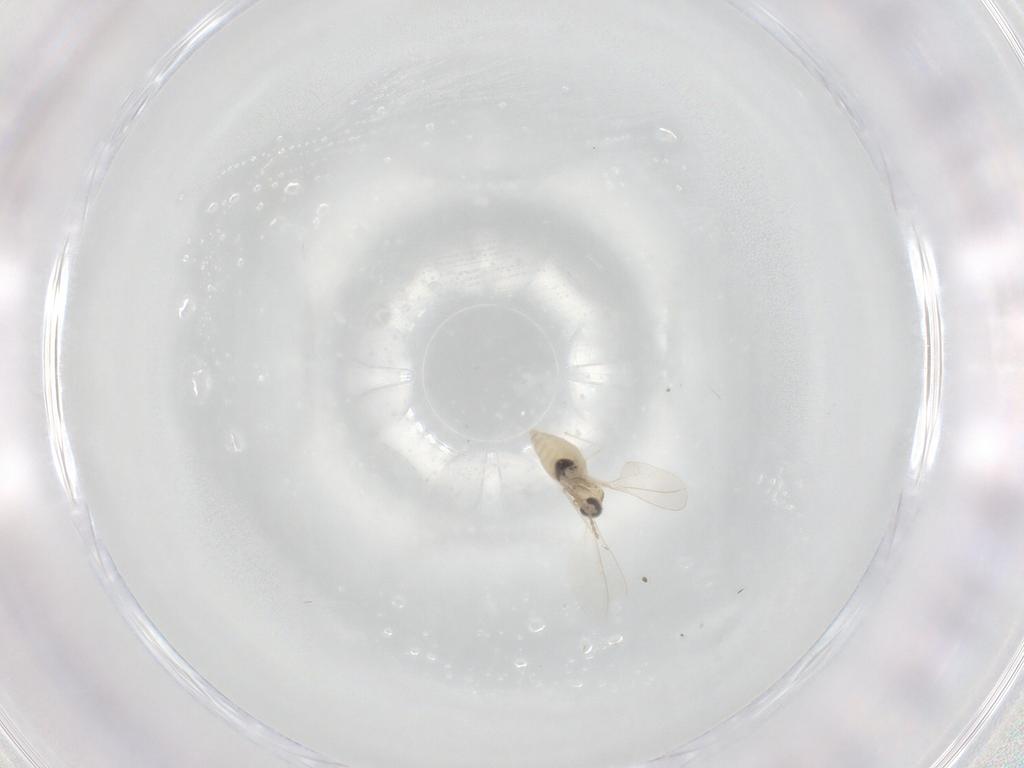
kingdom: Animalia
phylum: Arthropoda
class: Insecta
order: Diptera
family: Cecidomyiidae
